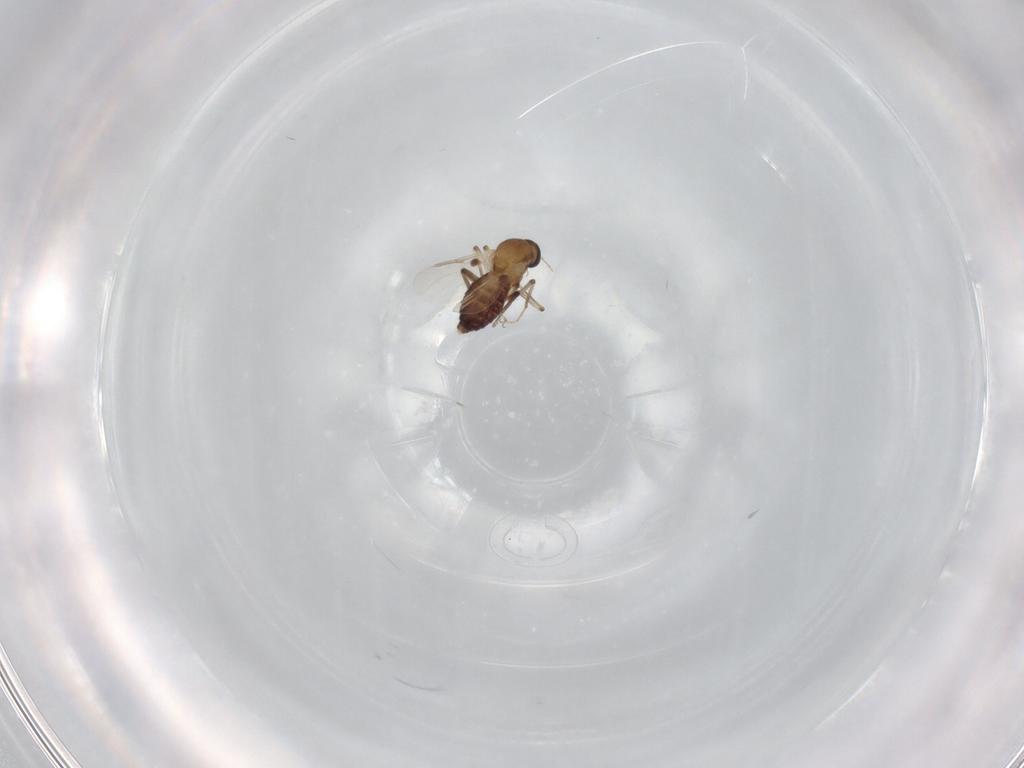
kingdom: Animalia
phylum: Arthropoda
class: Insecta
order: Diptera
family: Ceratopogonidae
